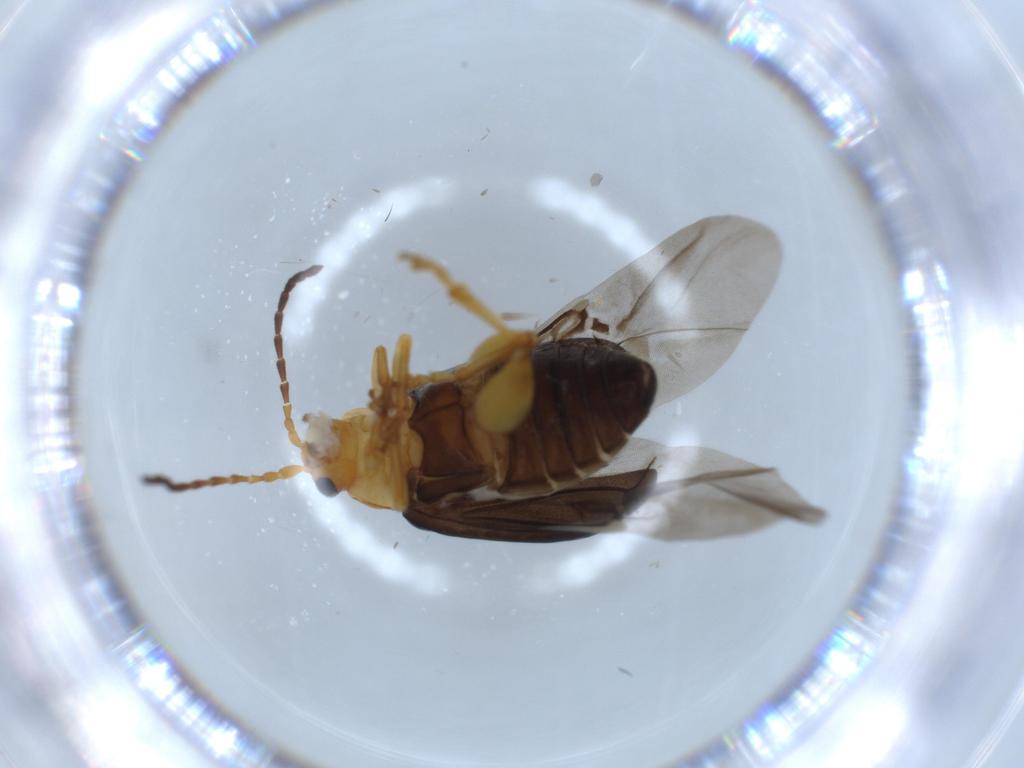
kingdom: Animalia
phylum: Arthropoda
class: Insecta
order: Coleoptera
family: Chrysomelidae
